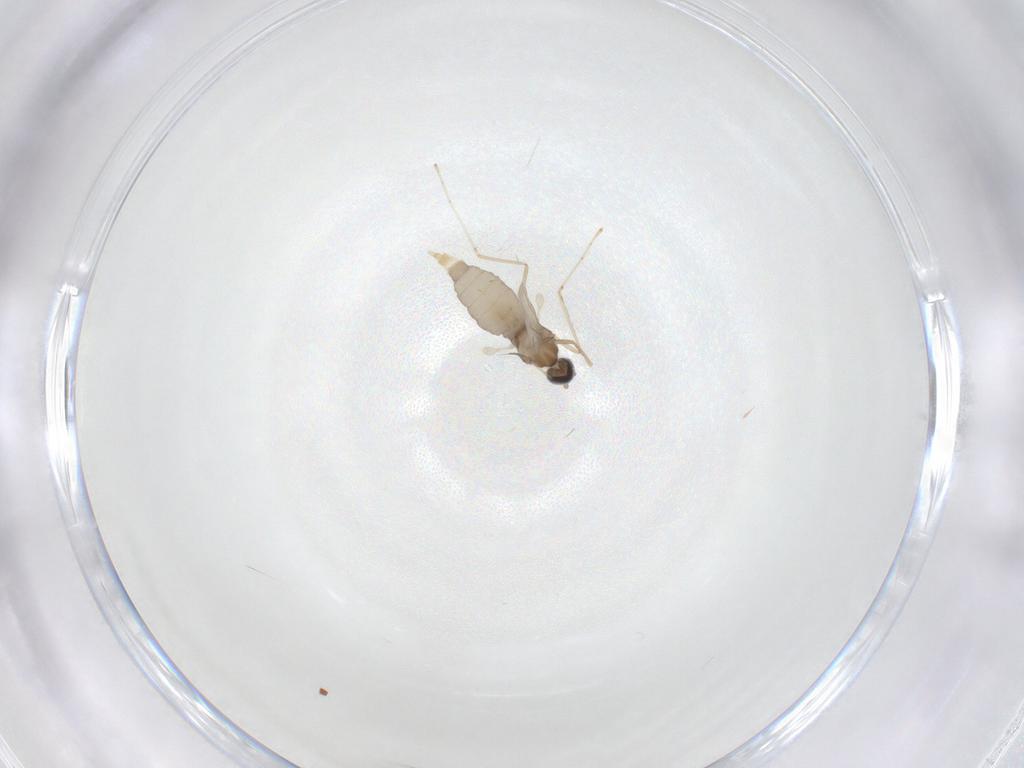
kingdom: Animalia
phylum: Arthropoda
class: Insecta
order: Diptera
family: Cecidomyiidae
